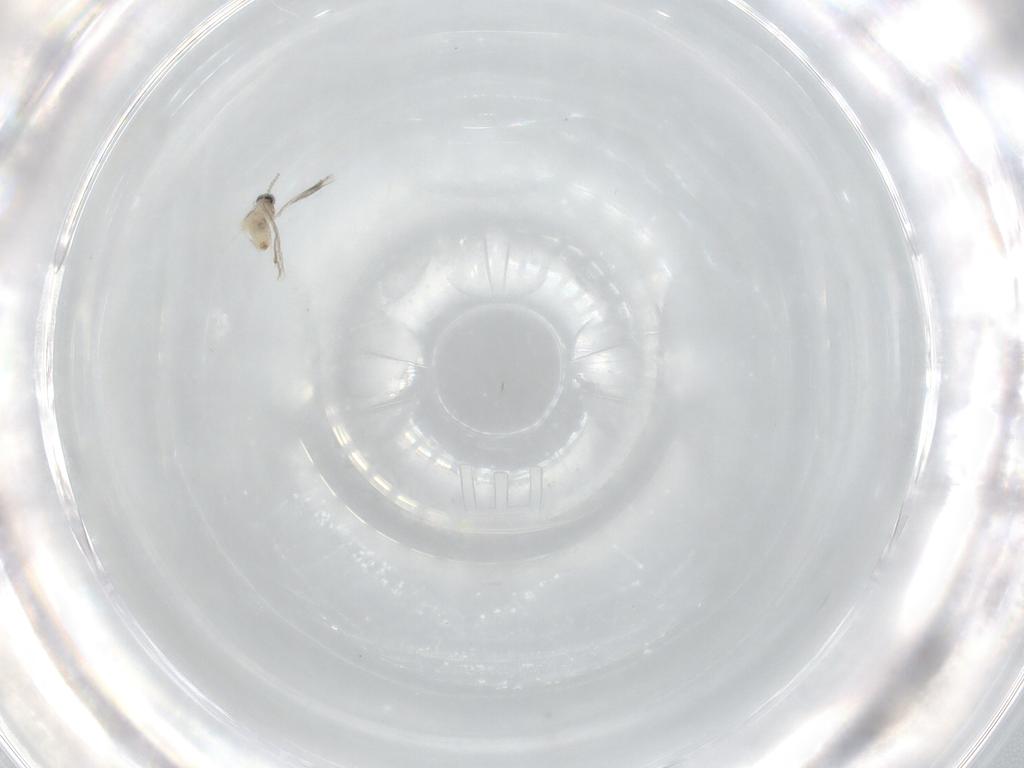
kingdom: Animalia
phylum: Arthropoda
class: Insecta
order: Diptera
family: Cecidomyiidae
